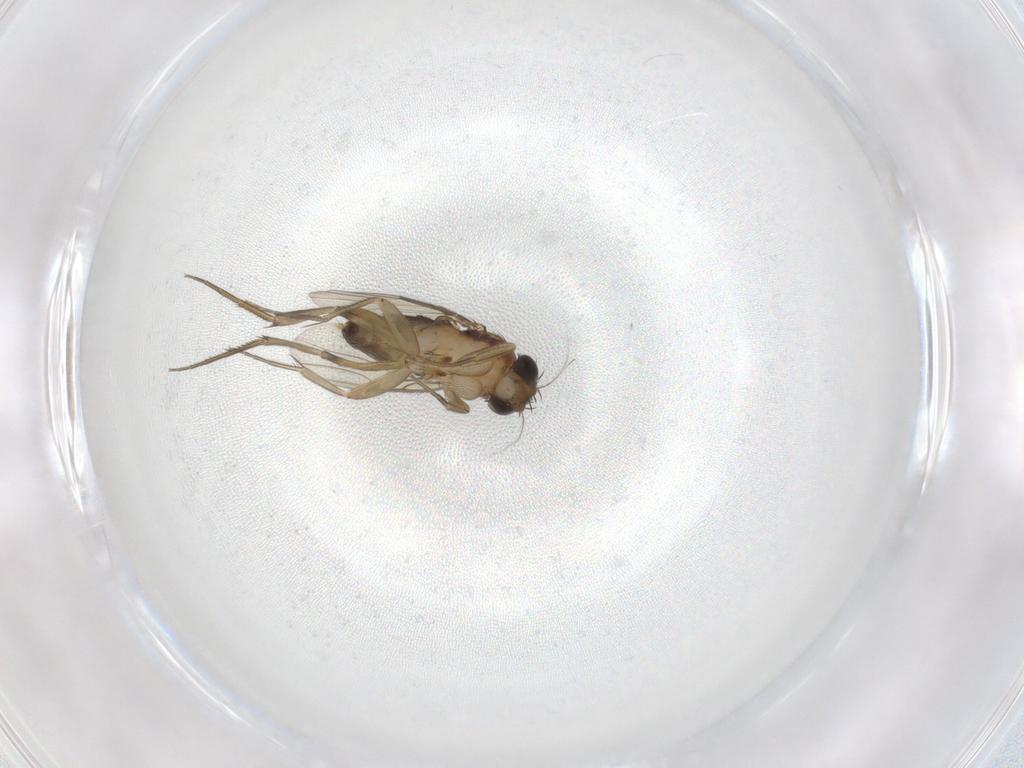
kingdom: Animalia
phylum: Arthropoda
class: Insecta
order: Diptera
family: Phoridae
